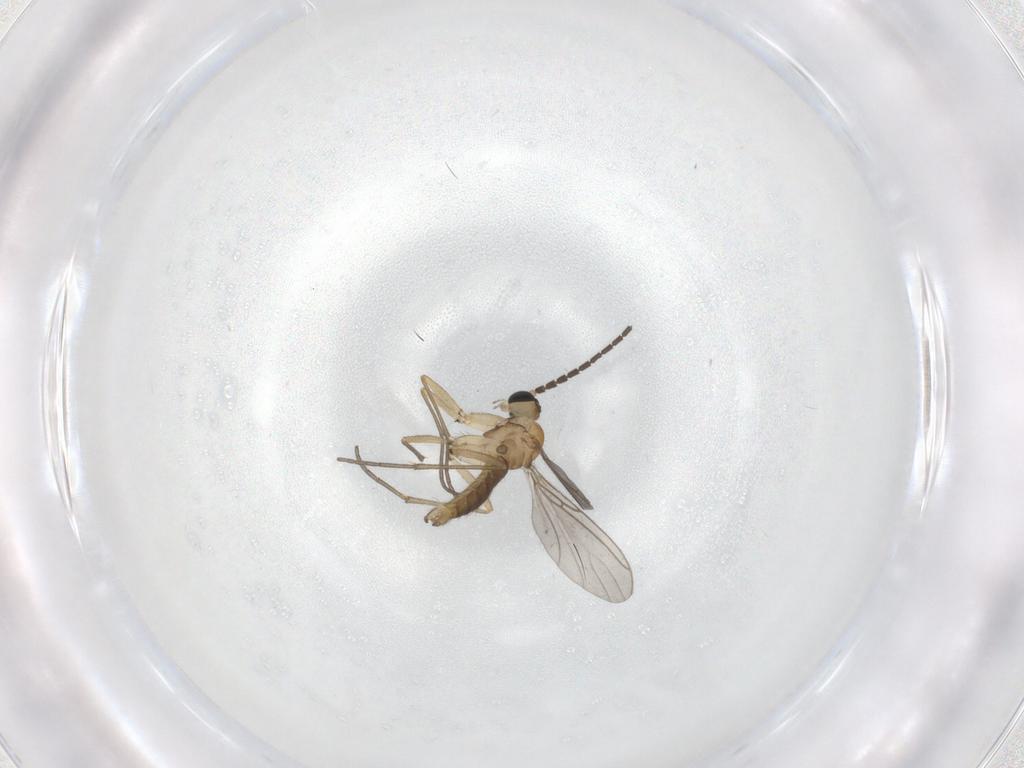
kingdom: Animalia
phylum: Arthropoda
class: Insecta
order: Diptera
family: Sciaridae
